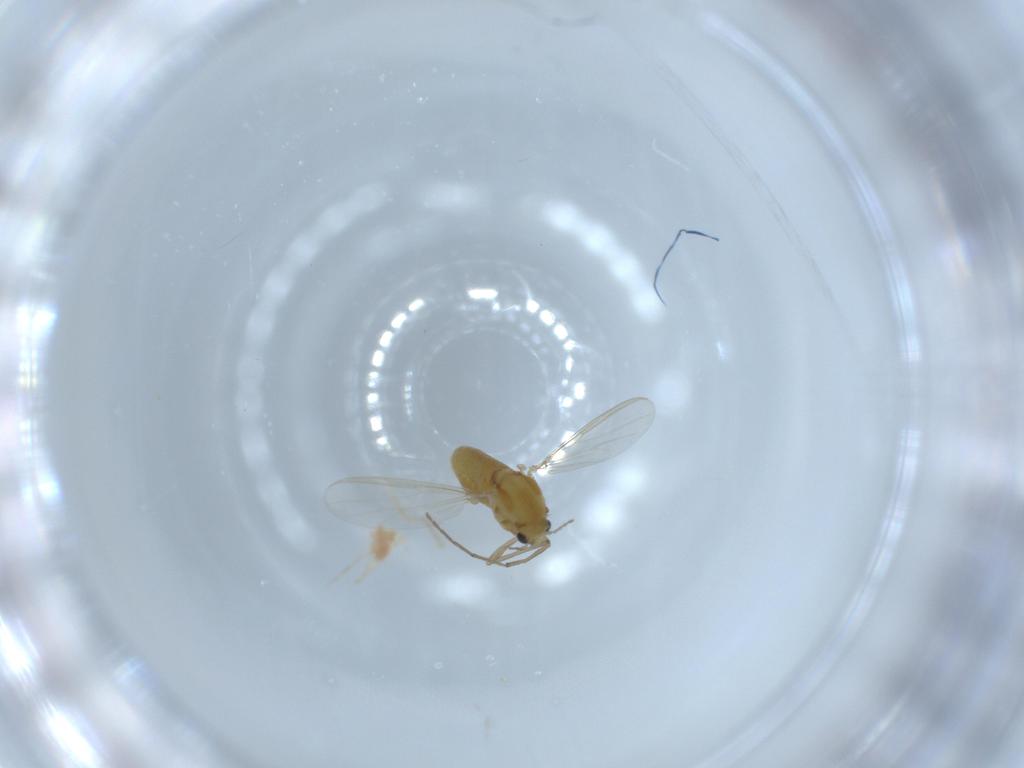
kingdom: Animalia
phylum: Arthropoda
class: Insecta
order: Diptera
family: Chironomidae
